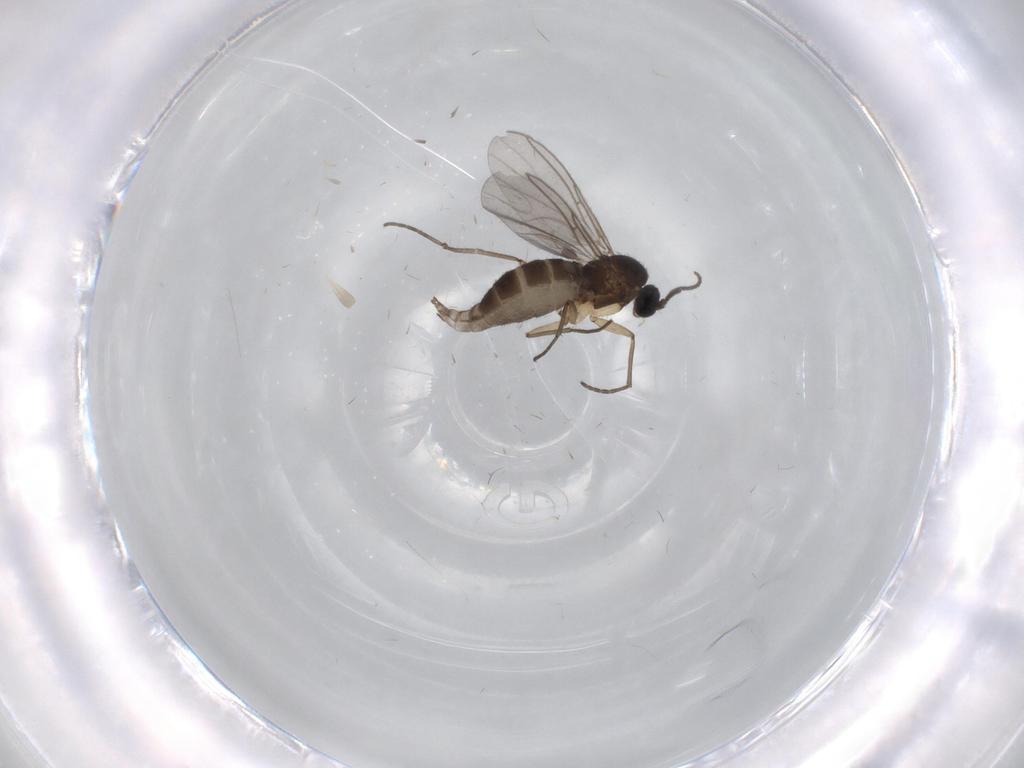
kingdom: Animalia
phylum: Arthropoda
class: Insecta
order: Diptera
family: Sciaridae
